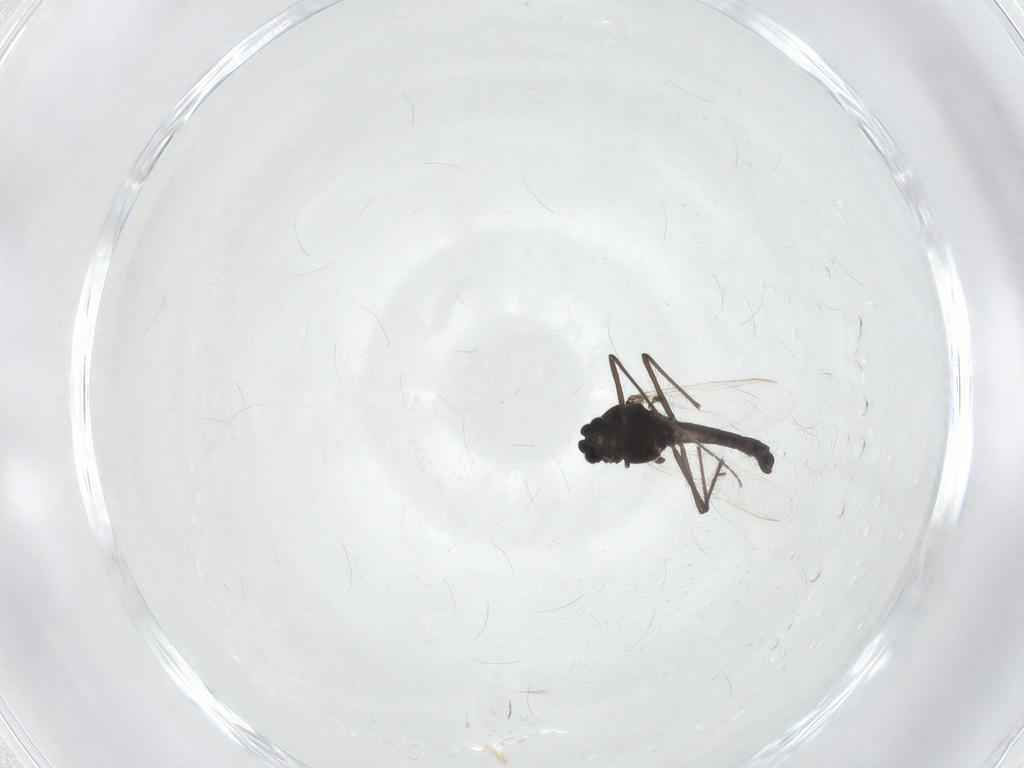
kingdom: Animalia
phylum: Arthropoda
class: Insecta
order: Diptera
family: Chironomidae
